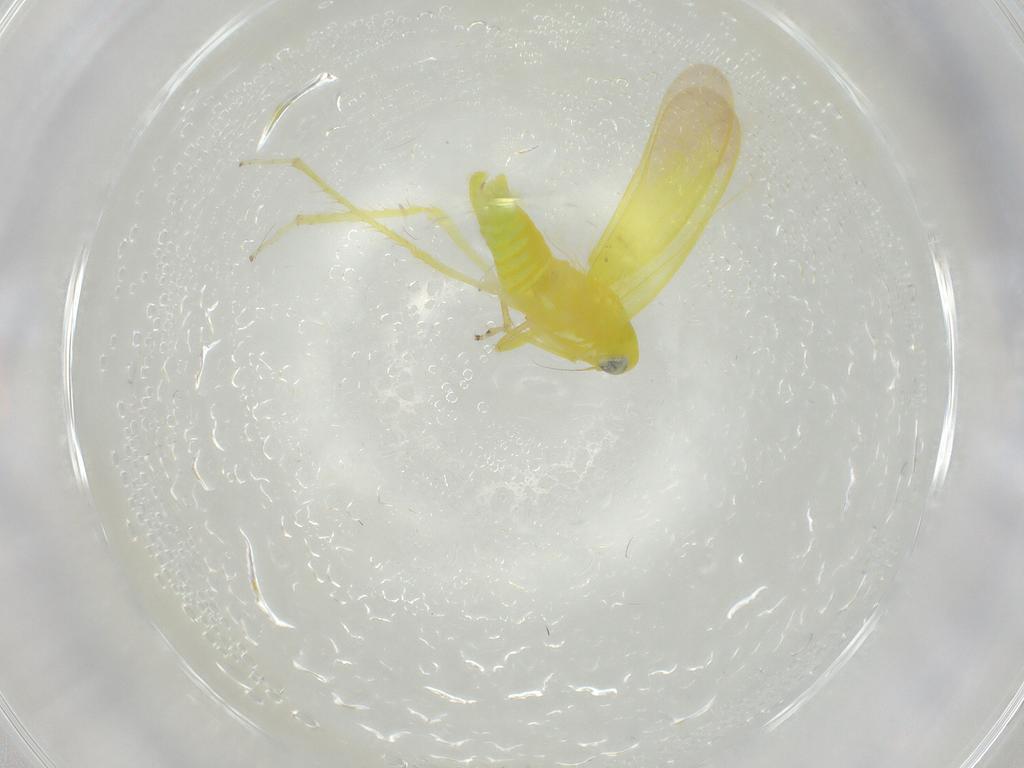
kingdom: Animalia
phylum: Arthropoda
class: Insecta
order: Hemiptera
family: Cicadellidae
